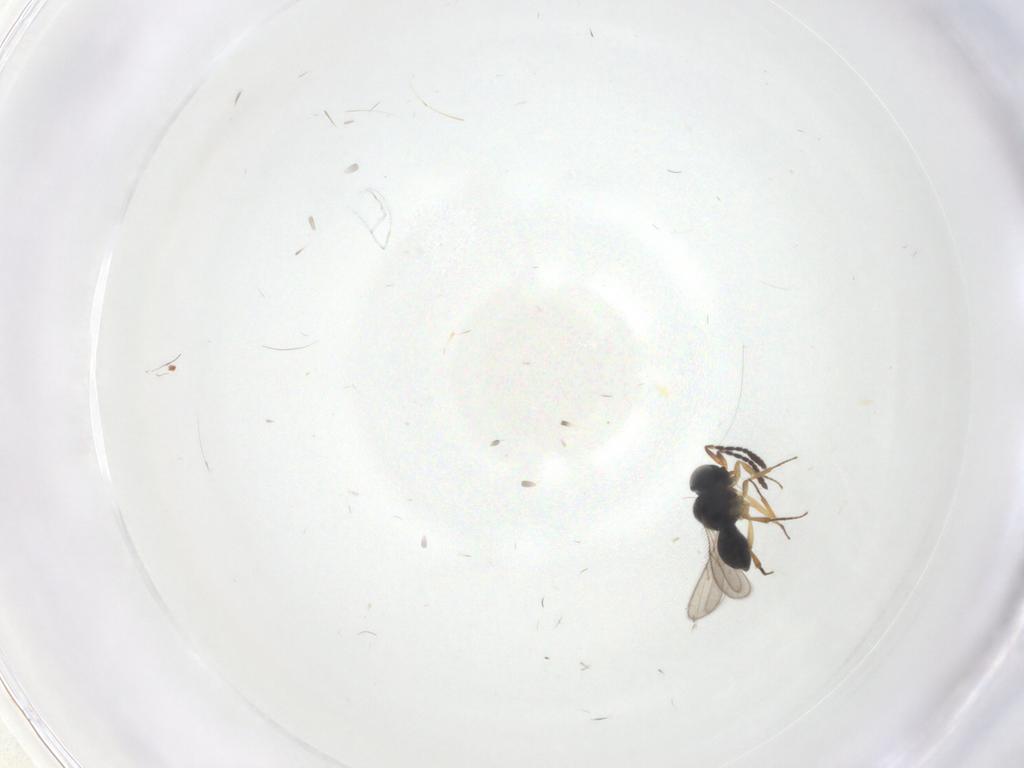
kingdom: Animalia
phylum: Arthropoda
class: Insecta
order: Hymenoptera
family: Scelionidae
